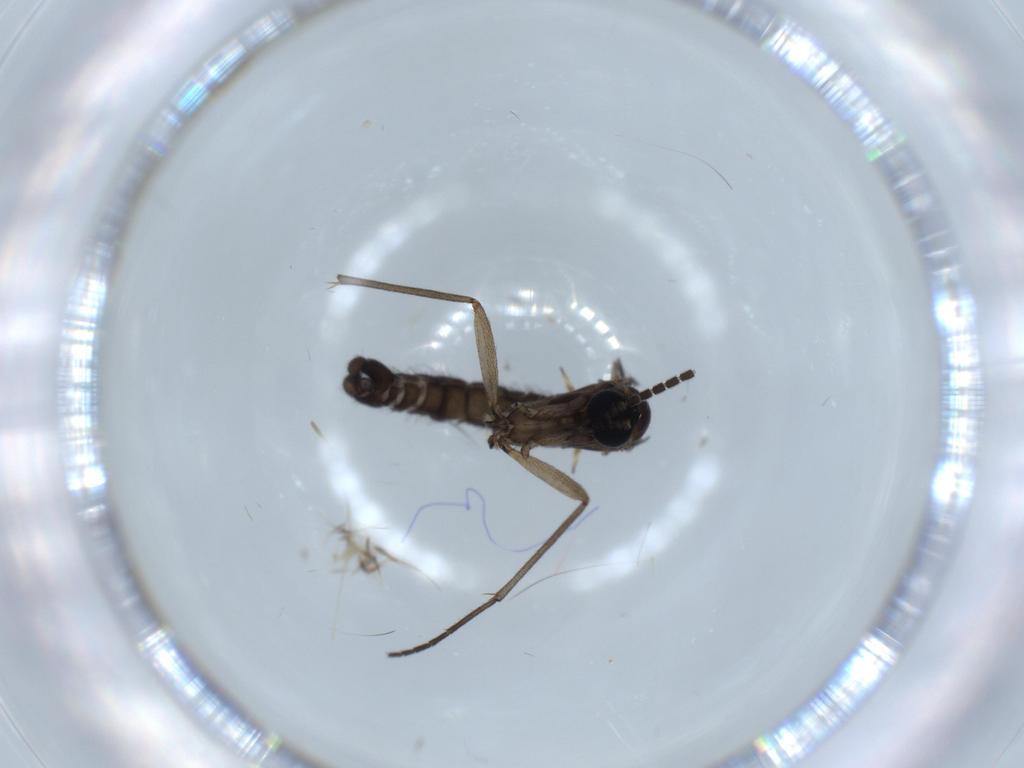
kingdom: Animalia
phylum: Arthropoda
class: Insecta
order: Diptera
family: Sciaridae
